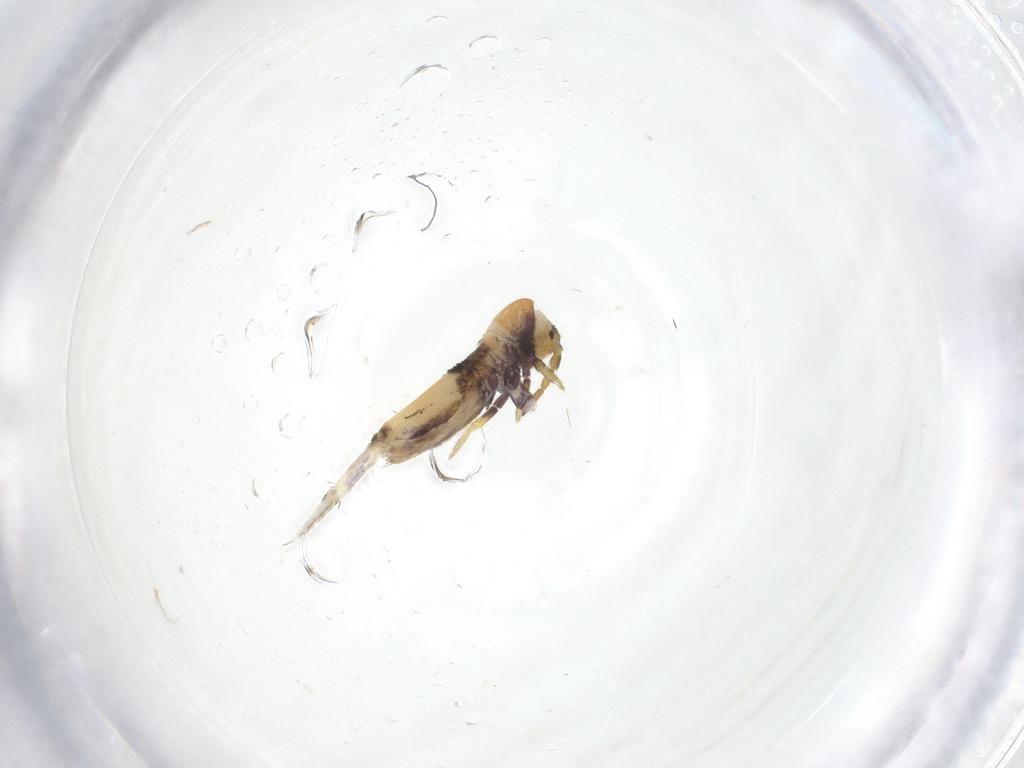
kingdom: Animalia
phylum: Arthropoda
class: Collembola
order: Entomobryomorpha
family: Entomobryidae
